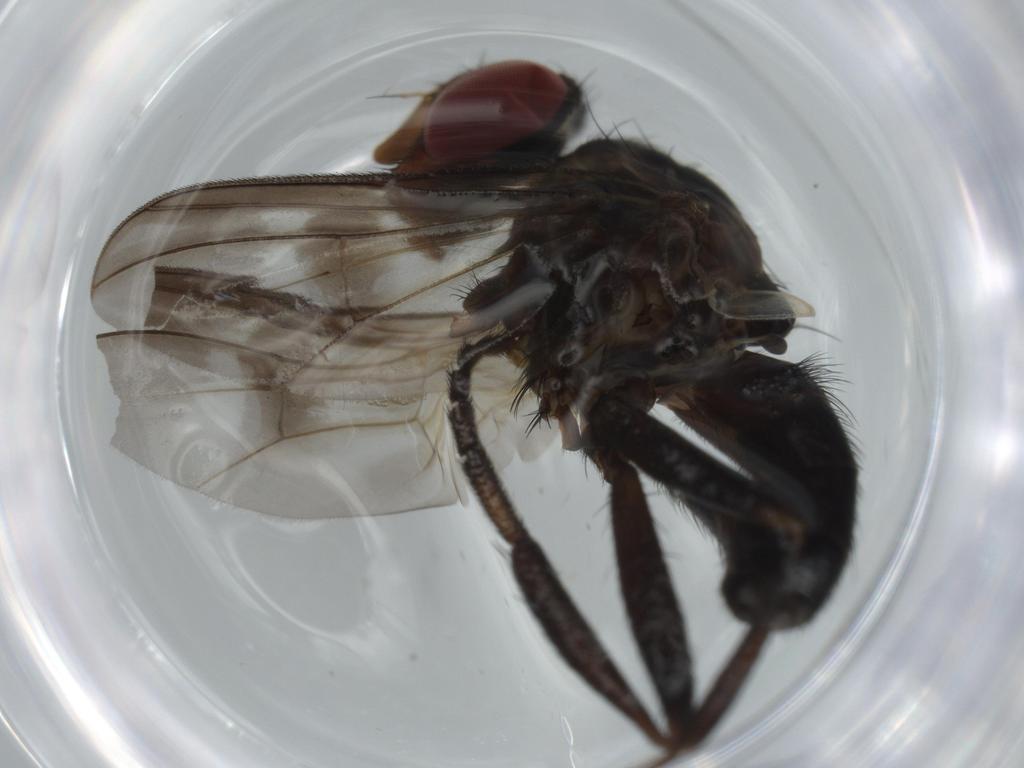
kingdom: Animalia
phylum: Arthropoda
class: Insecta
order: Diptera
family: Calliphoridae
